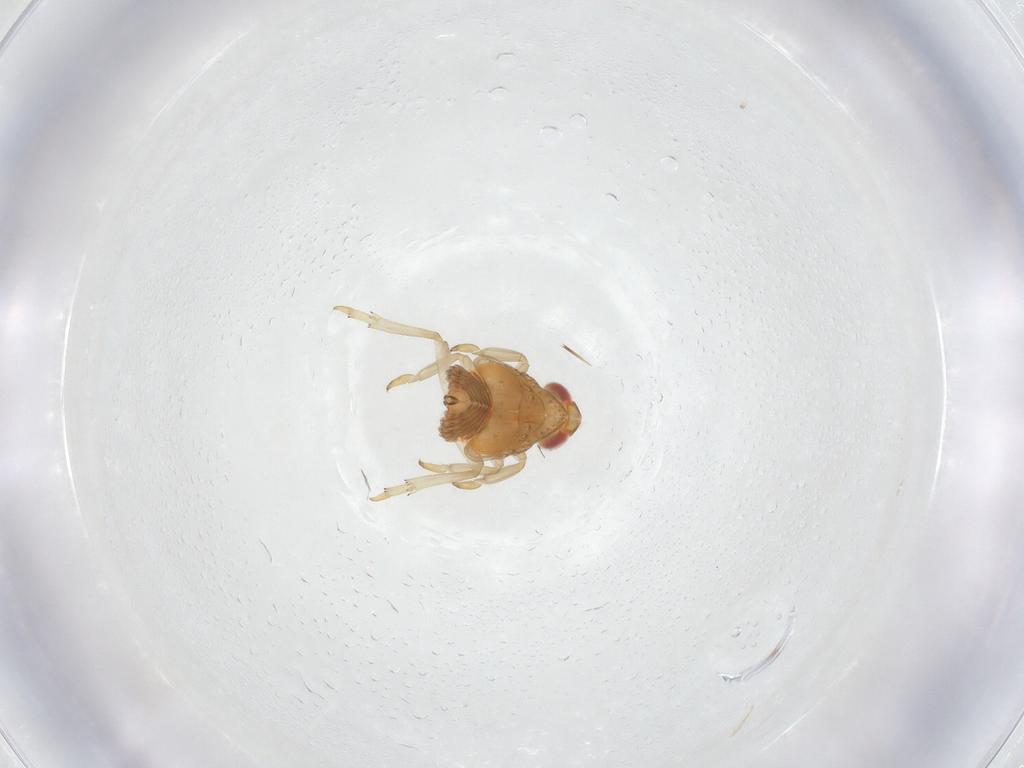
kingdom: Animalia
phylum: Arthropoda
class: Insecta
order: Hemiptera
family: Fulgoroidea_incertae_sedis
